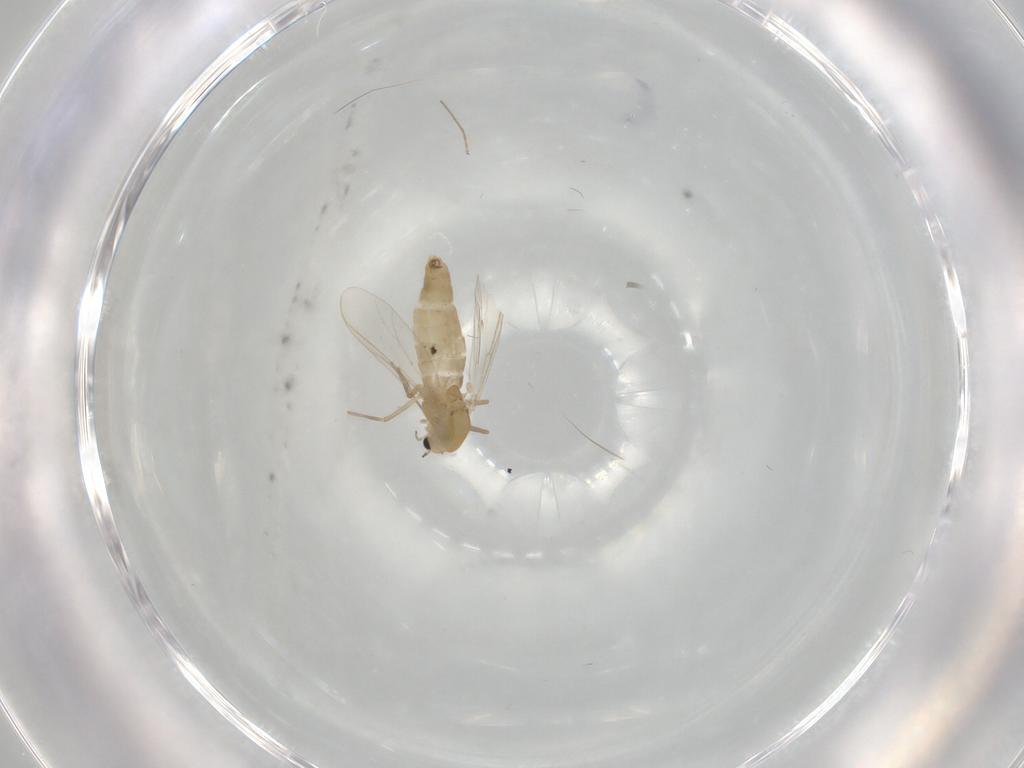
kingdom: Animalia
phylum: Arthropoda
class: Insecta
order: Diptera
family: Chironomidae
